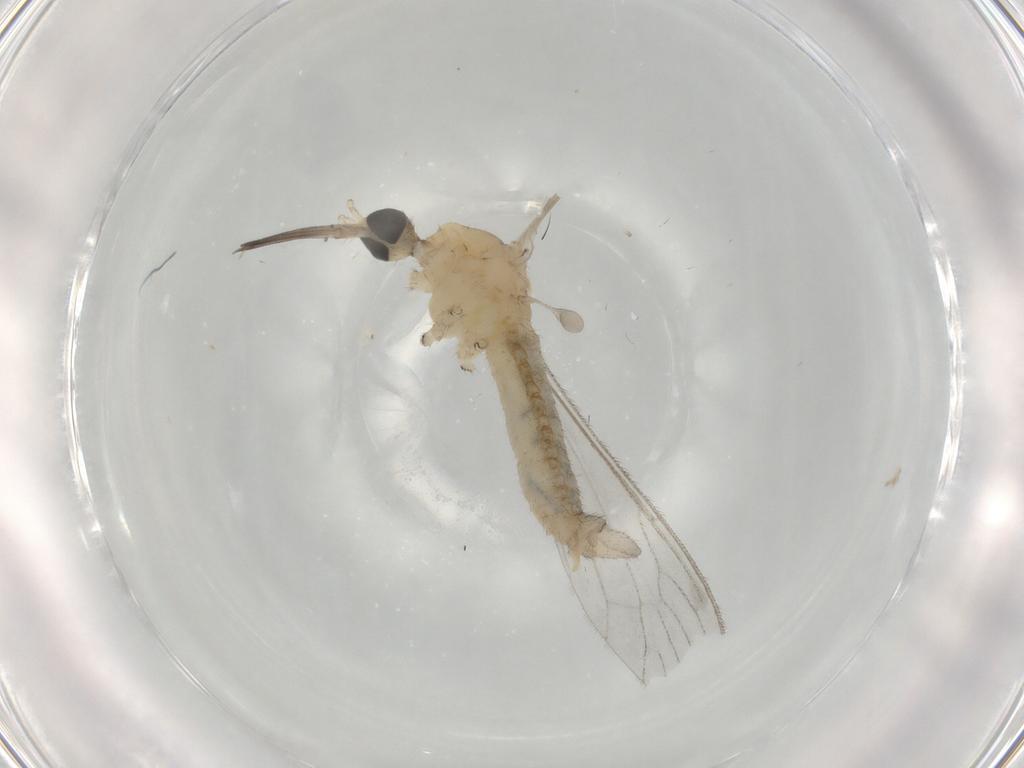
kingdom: Animalia
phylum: Arthropoda
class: Insecta
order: Diptera
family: Limoniidae
